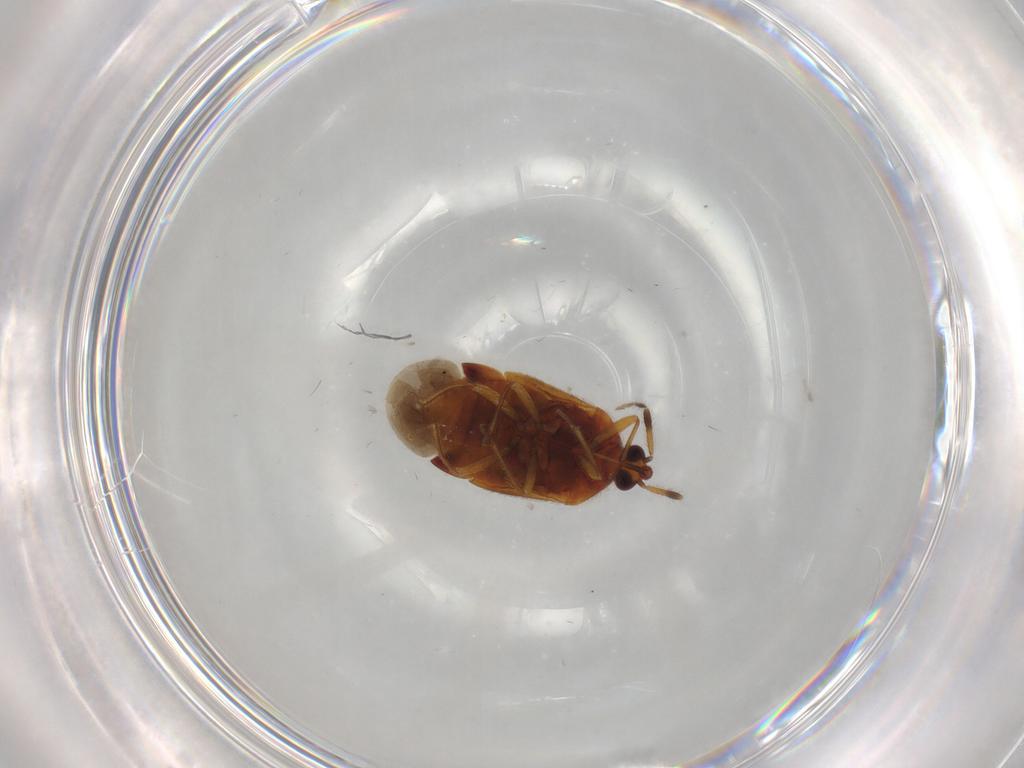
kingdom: Animalia
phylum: Arthropoda
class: Insecta
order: Hemiptera
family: Anthocoridae
